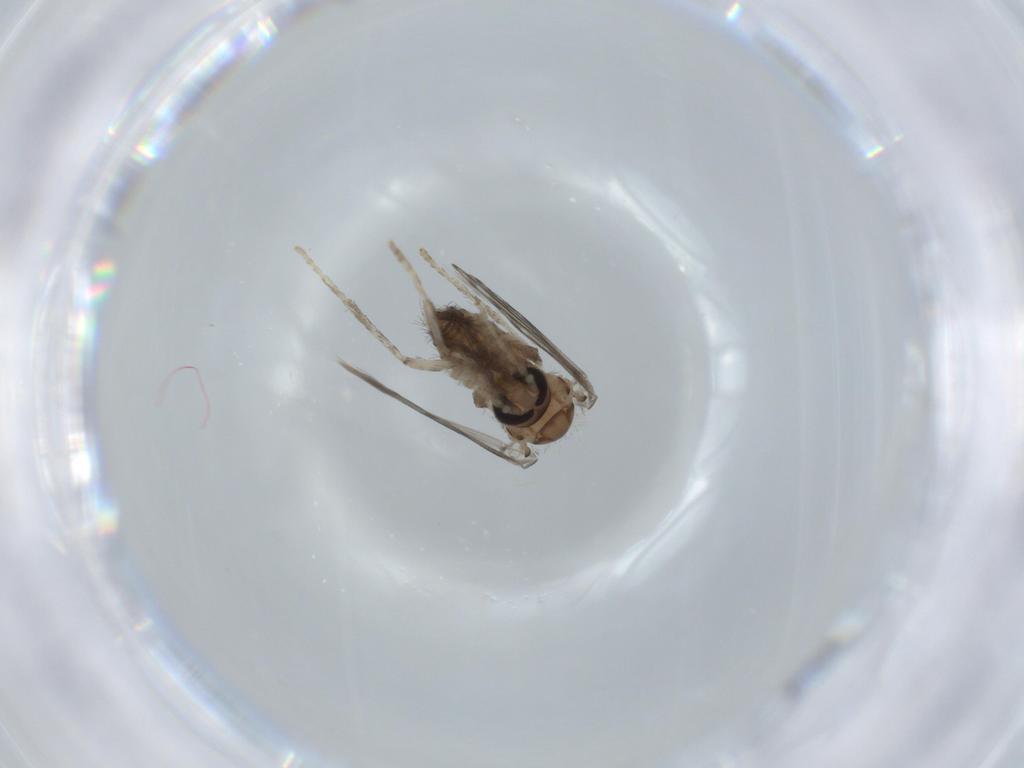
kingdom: Animalia
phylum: Arthropoda
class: Insecta
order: Diptera
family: Psychodidae
